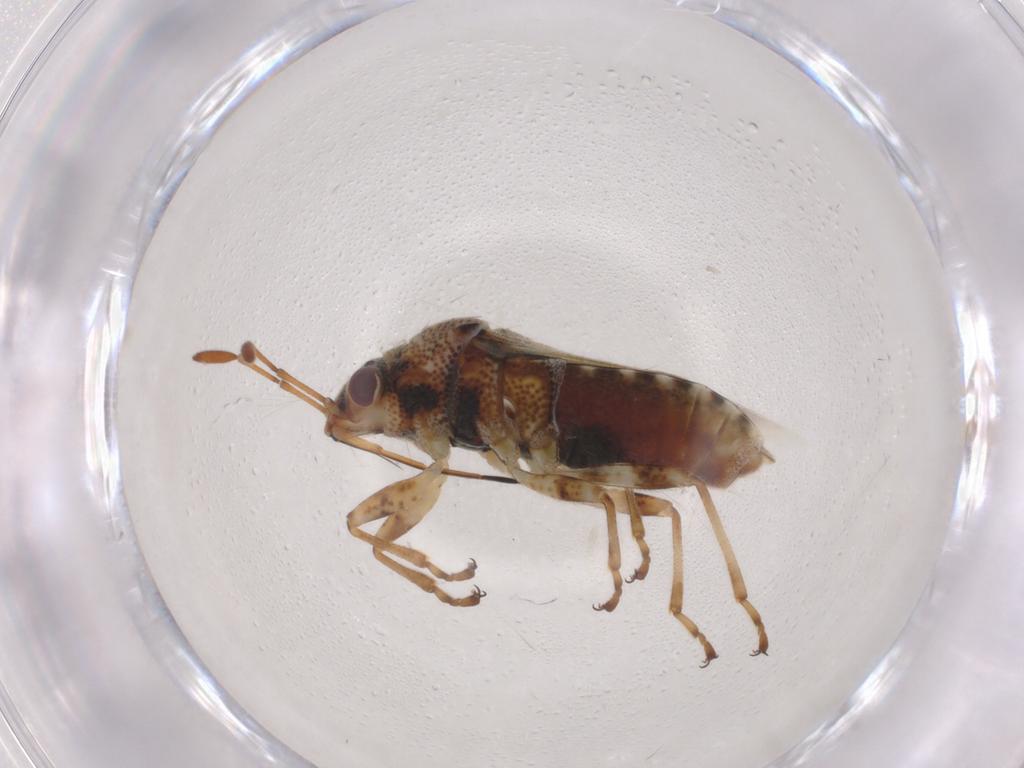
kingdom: Animalia
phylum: Arthropoda
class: Insecta
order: Hemiptera
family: Lygaeidae
